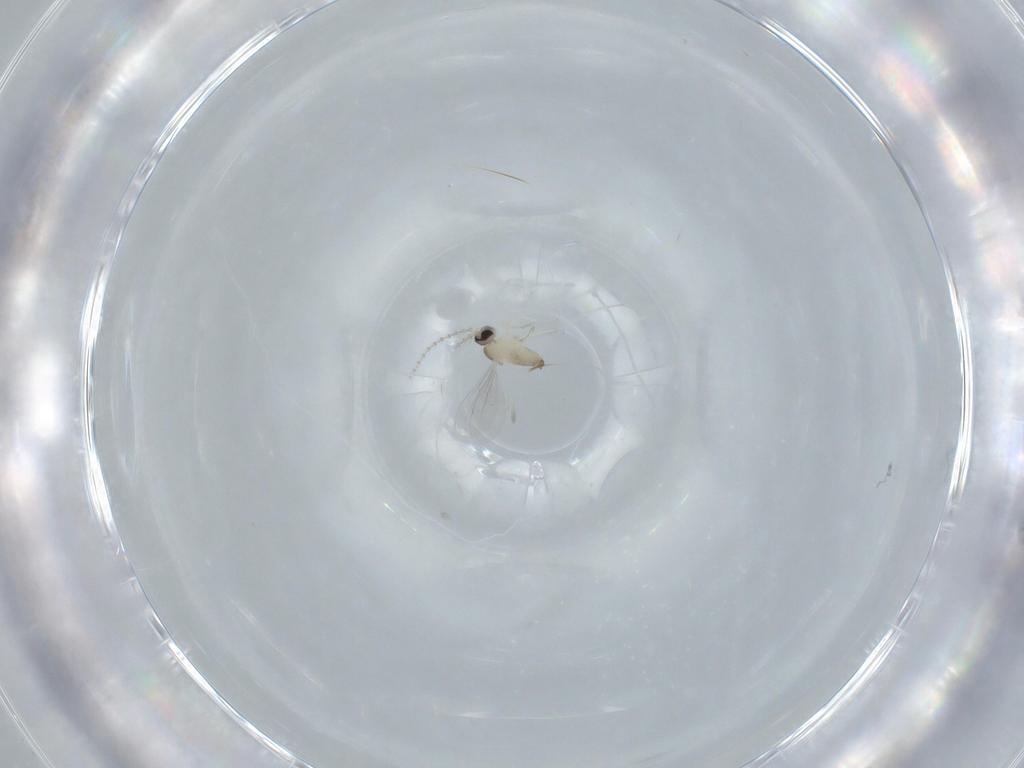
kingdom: Animalia
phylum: Arthropoda
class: Insecta
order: Diptera
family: Cecidomyiidae
